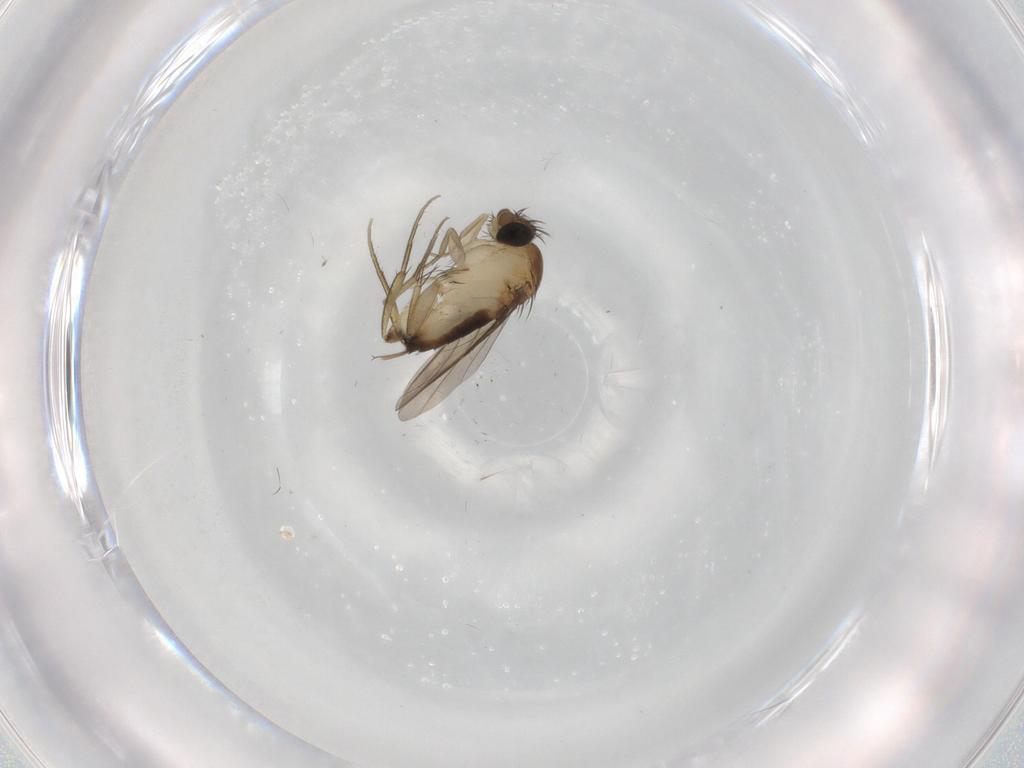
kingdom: Animalia
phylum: Arthropoda
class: Insecta
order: Diptera
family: Phoridae
